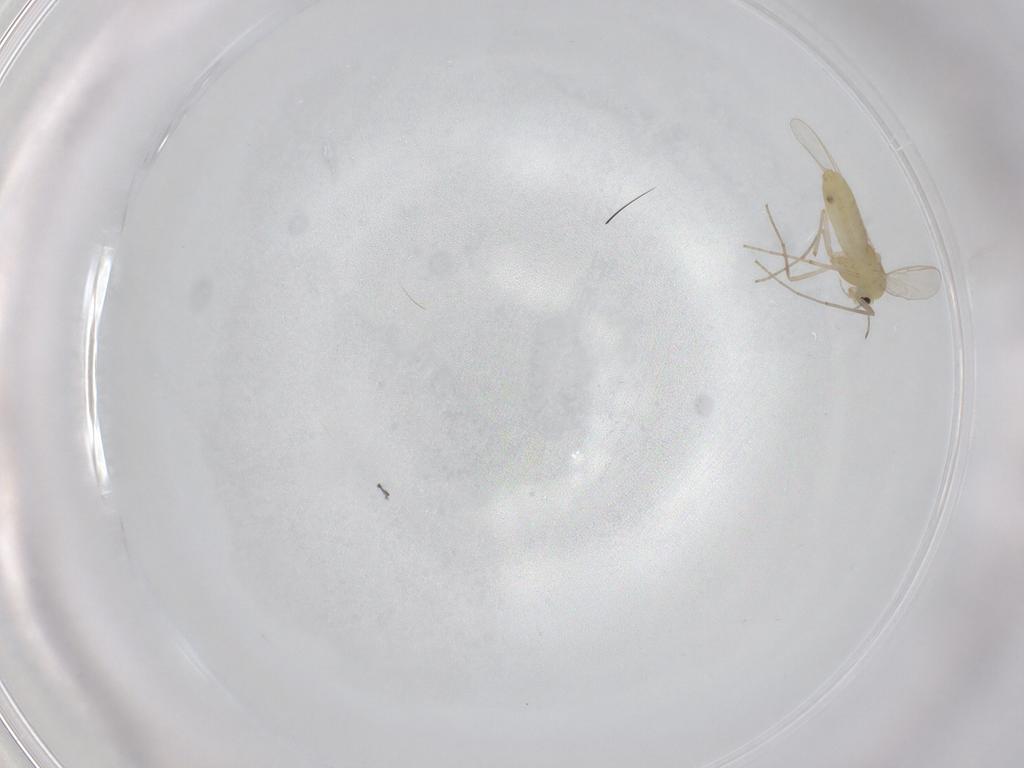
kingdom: Animalia
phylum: Arthropoda
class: Insecta
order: Diptera
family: Chironomidae
